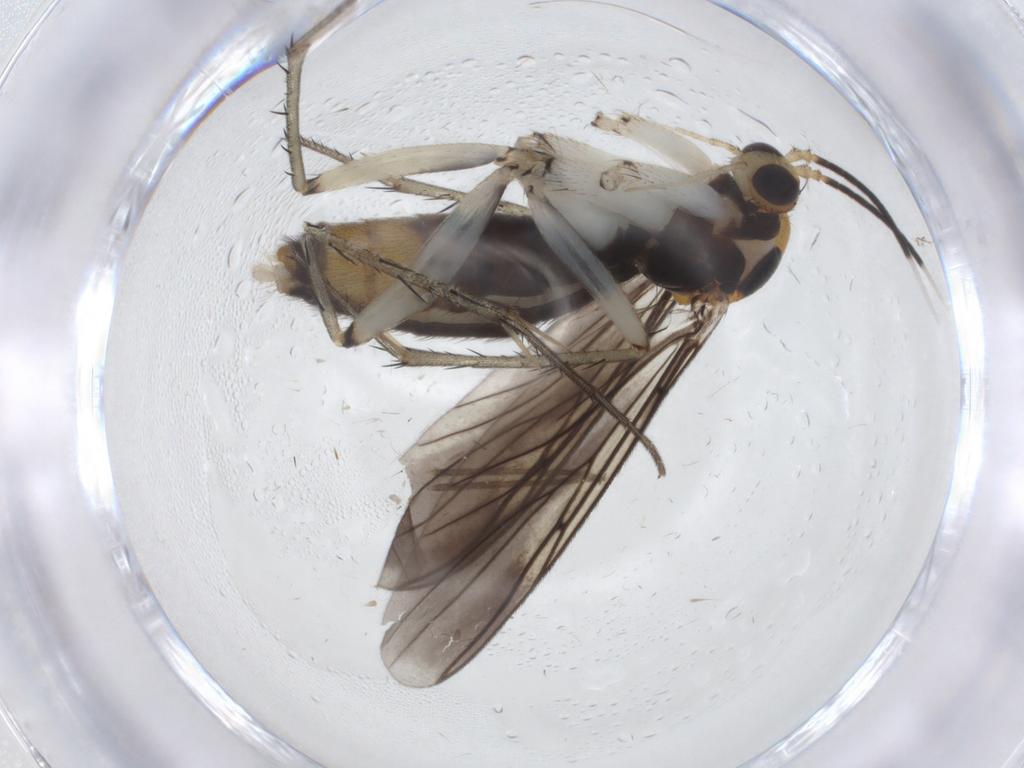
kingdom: Animalia
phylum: Arthropoda
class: Insecta
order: Diptera
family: Mycetophilidae
